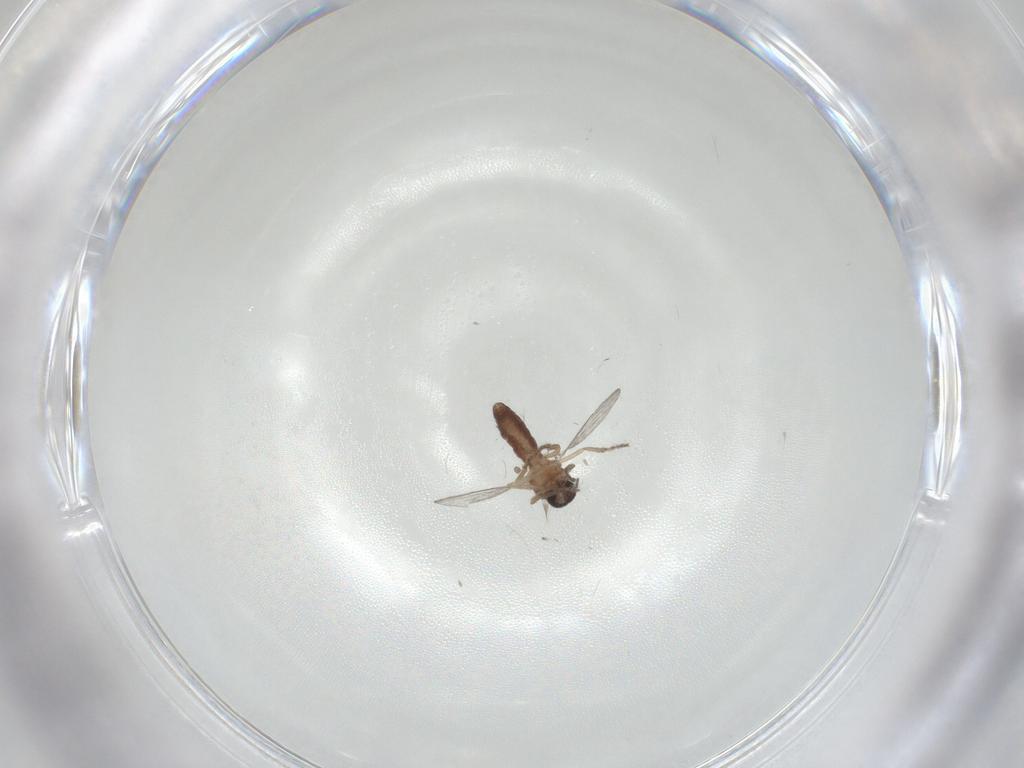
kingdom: Animalia
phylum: Arthropoda
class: Insecta
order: Diptera
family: Ceratopogonidae
